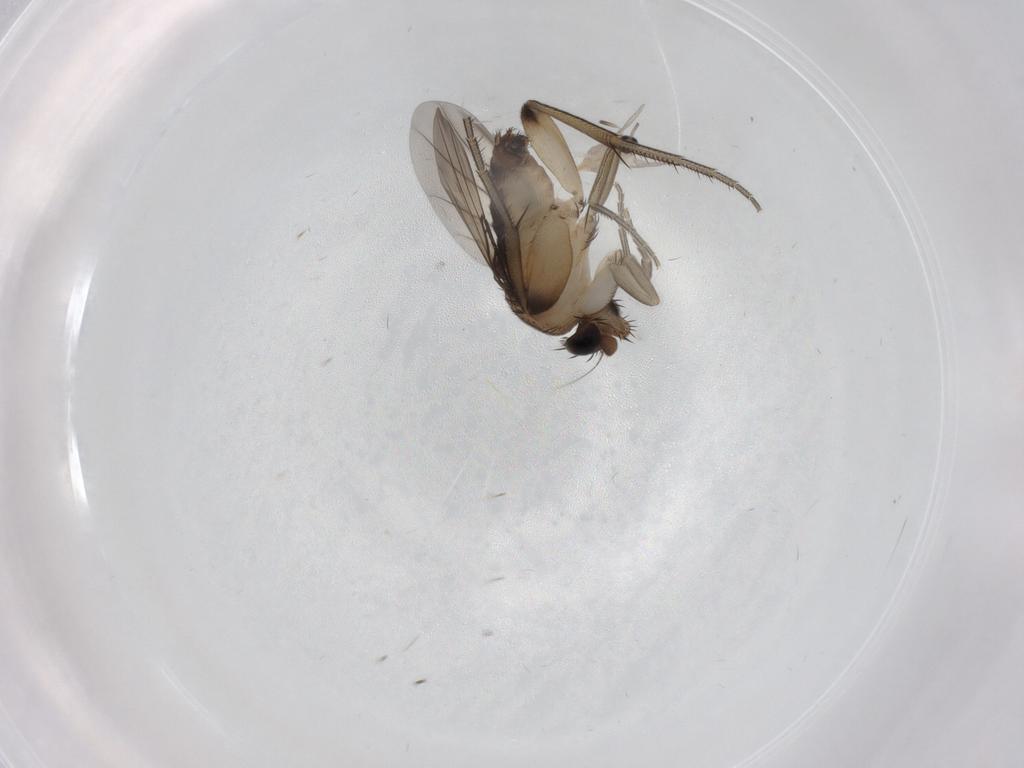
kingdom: Animalia
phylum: Arthropoda
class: Insecta
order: Diptera
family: Phoridae
